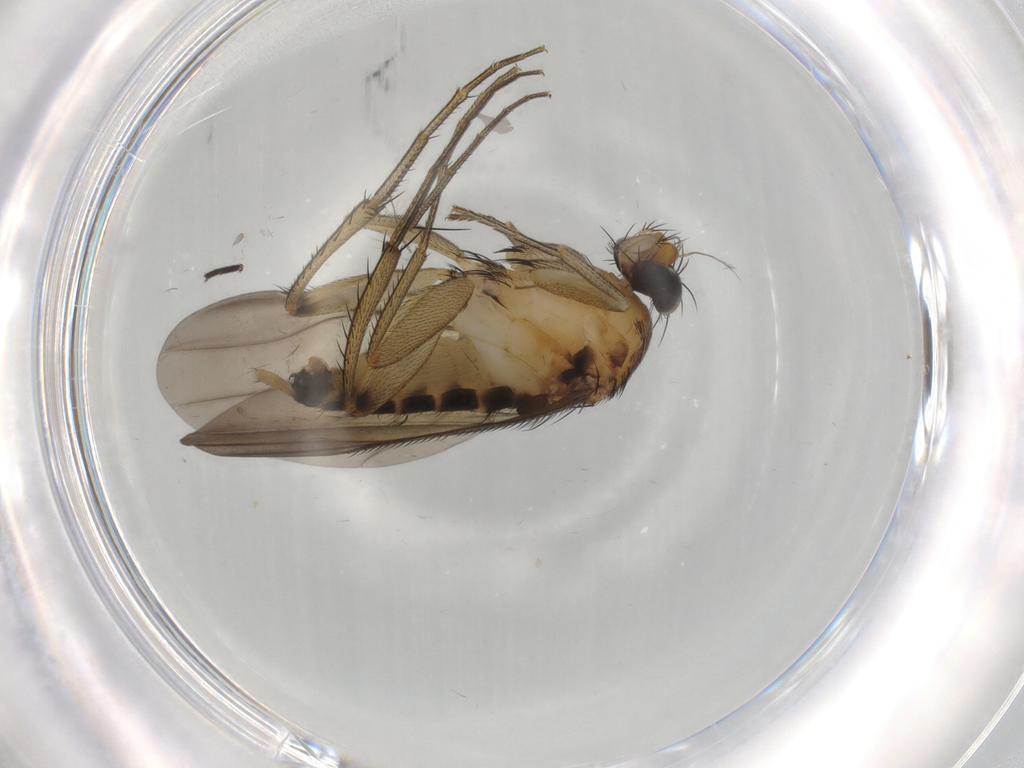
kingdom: Animalia
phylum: Arthropoda
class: Insecta
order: Diptera
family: Phoridae
